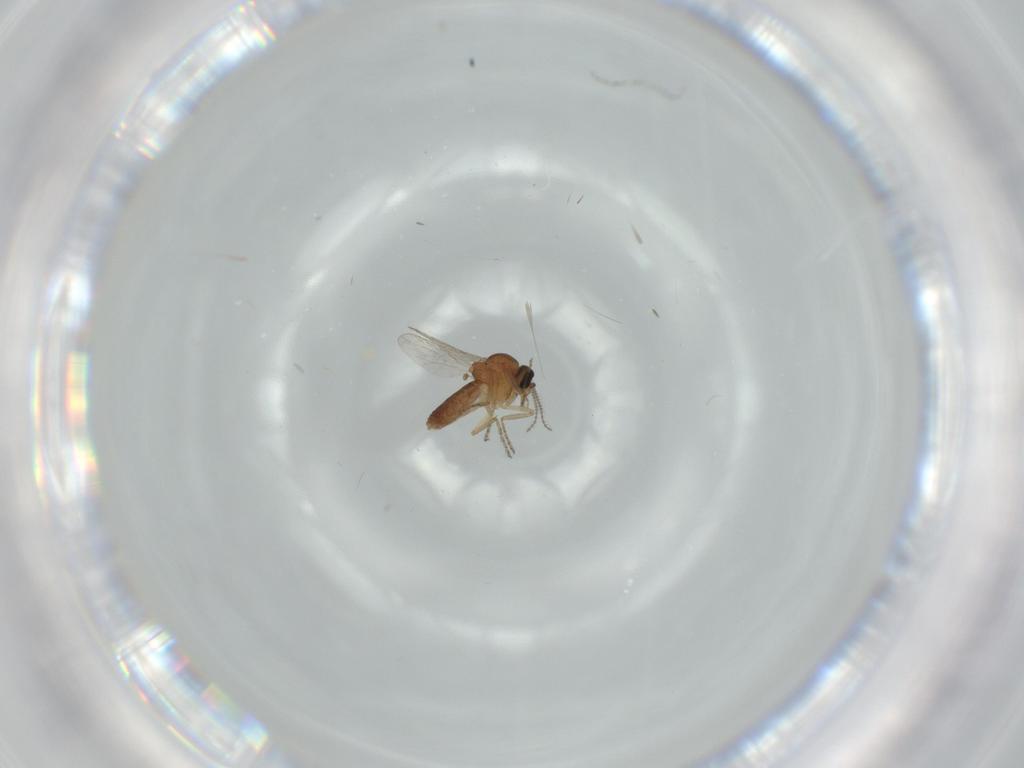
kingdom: Animalia
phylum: Arthropoda
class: Insecta
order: Diptera
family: Ceratopogonidae
